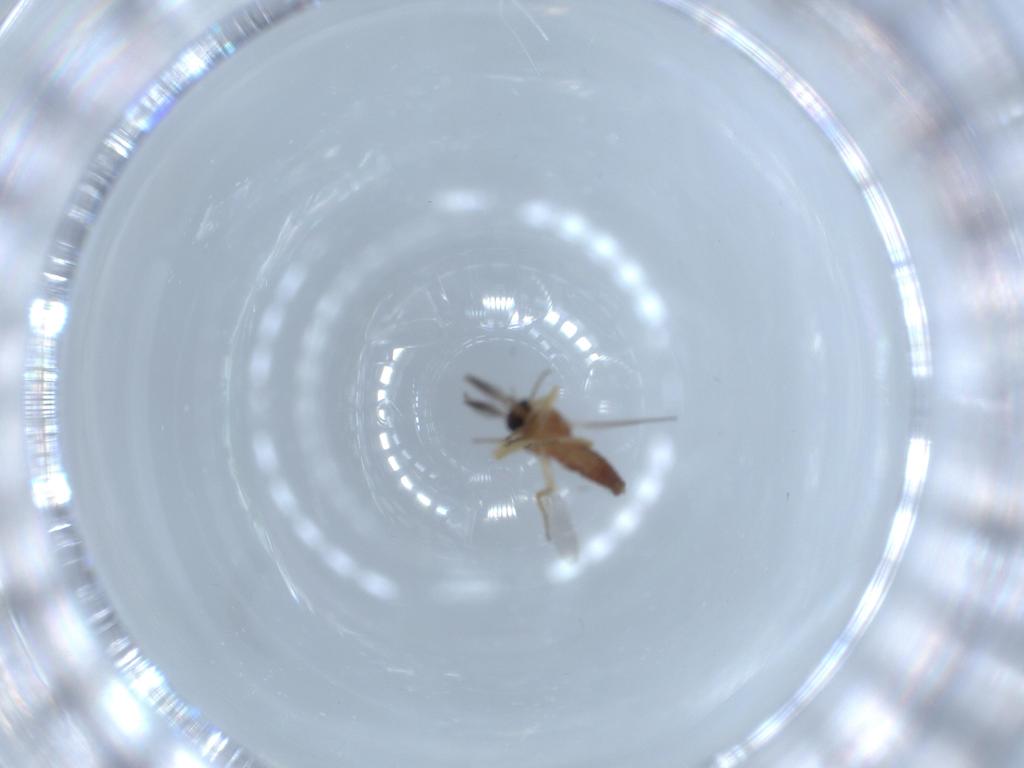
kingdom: Animalia
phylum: Arthropoda
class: Insecta
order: Diptera
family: Ceratopogonidae
